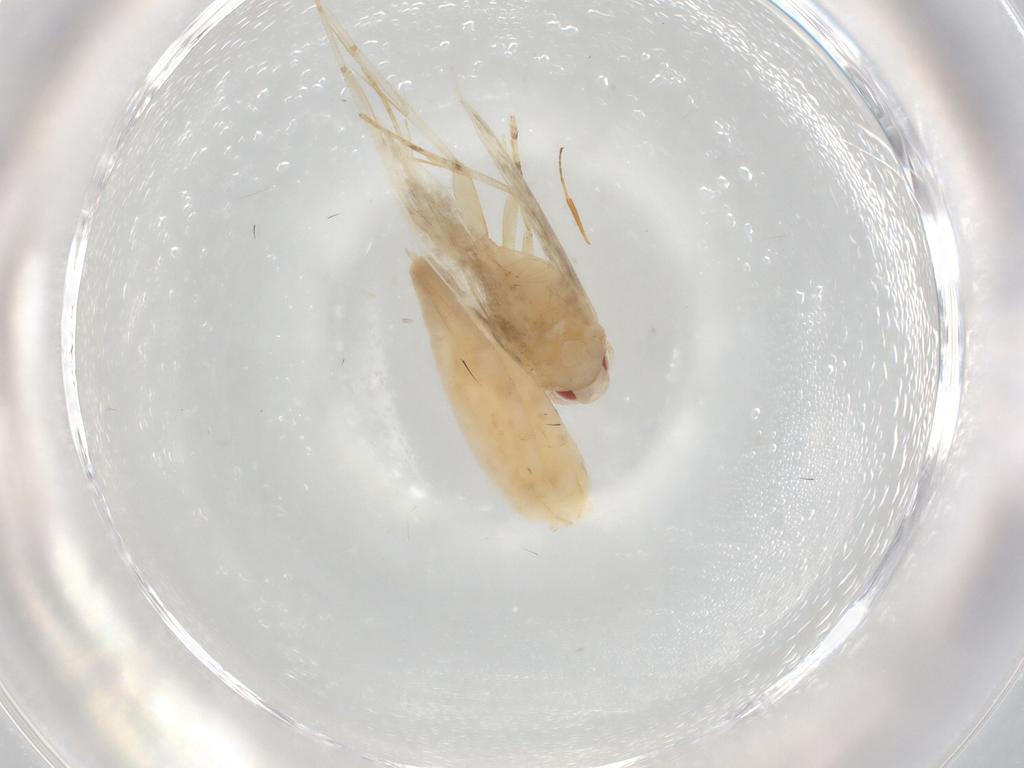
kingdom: Animalia
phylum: Arthropoda
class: Insecta
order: Lepidoptera
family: Cosmopterigidae
